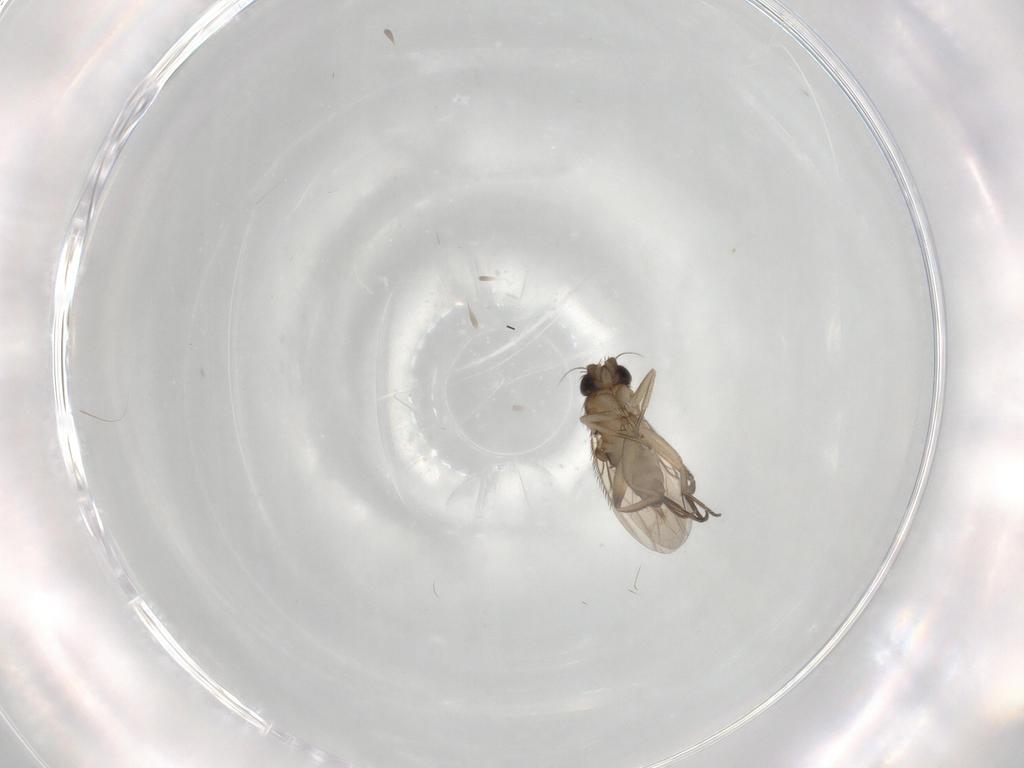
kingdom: Animalia
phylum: Arthropoda
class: Insecta
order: Diptera
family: Phoridae
